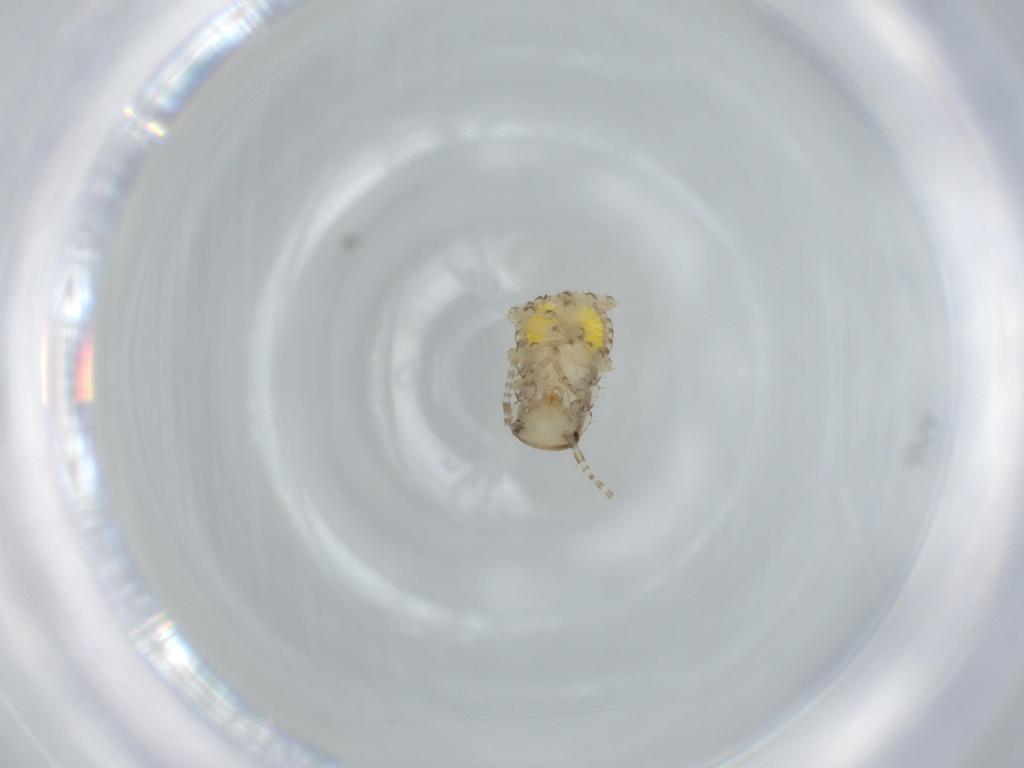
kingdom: Animalia
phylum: Arthropoda
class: Insecta
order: Blattodea
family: Ectobiidae
